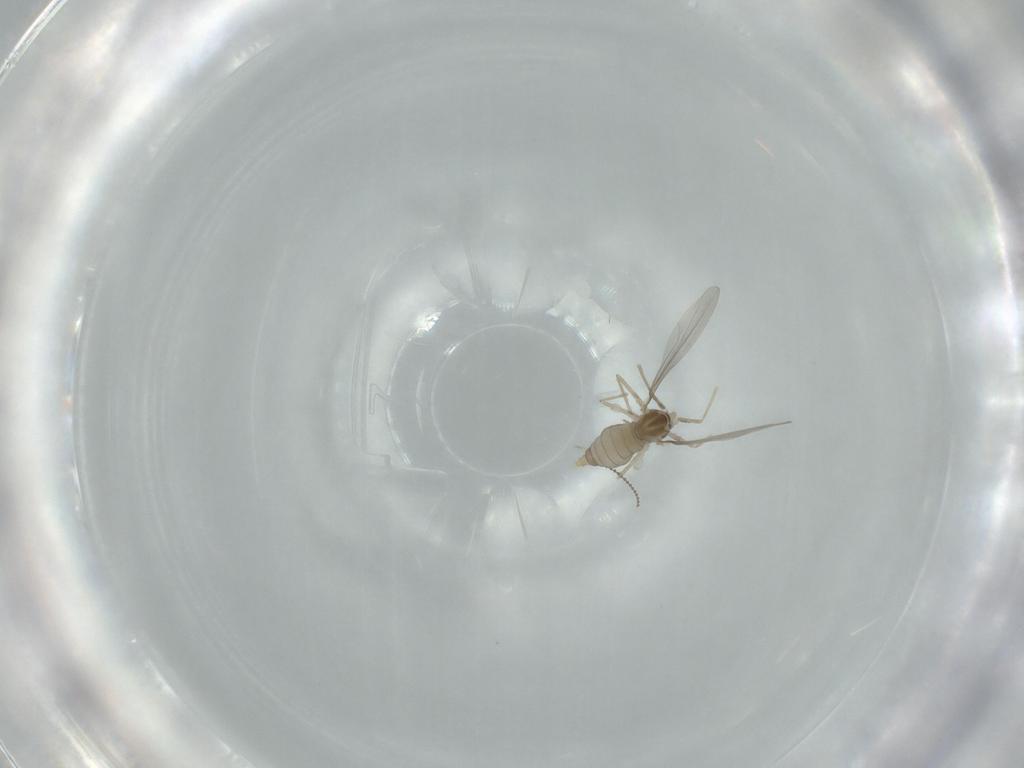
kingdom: Animalia
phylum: Arthropoda
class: Insecta
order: Diptera
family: Cecidomyiidae
